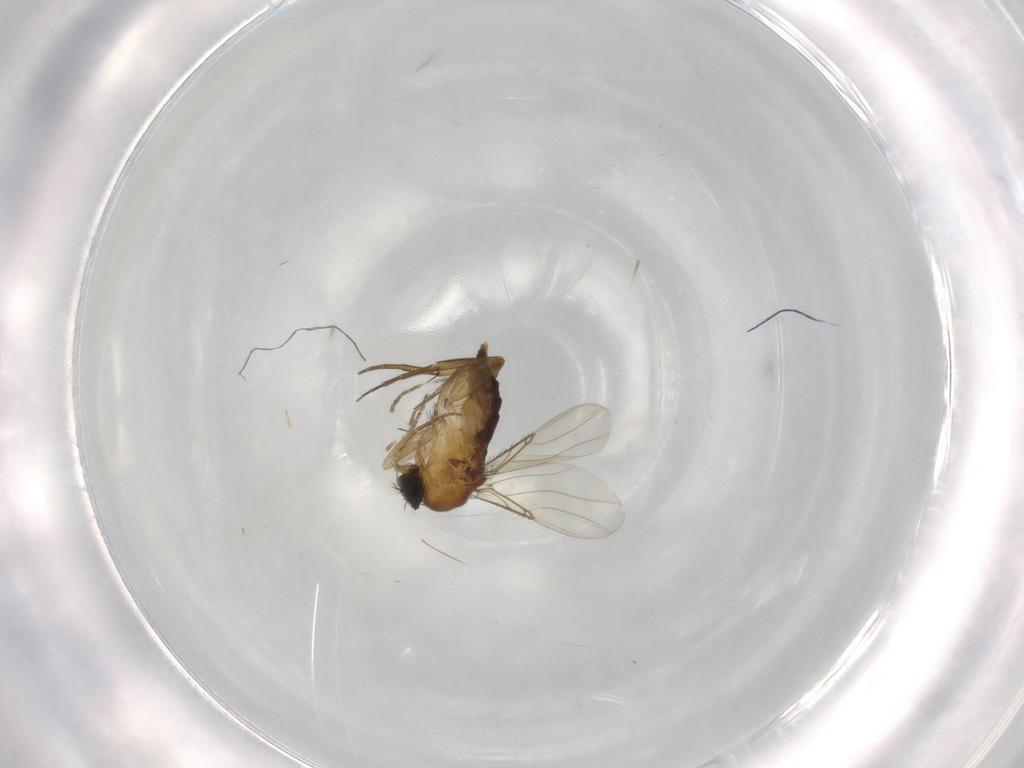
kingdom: Animalia
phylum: Arthropoda
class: Insecta
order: Diptera
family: Phoridae
